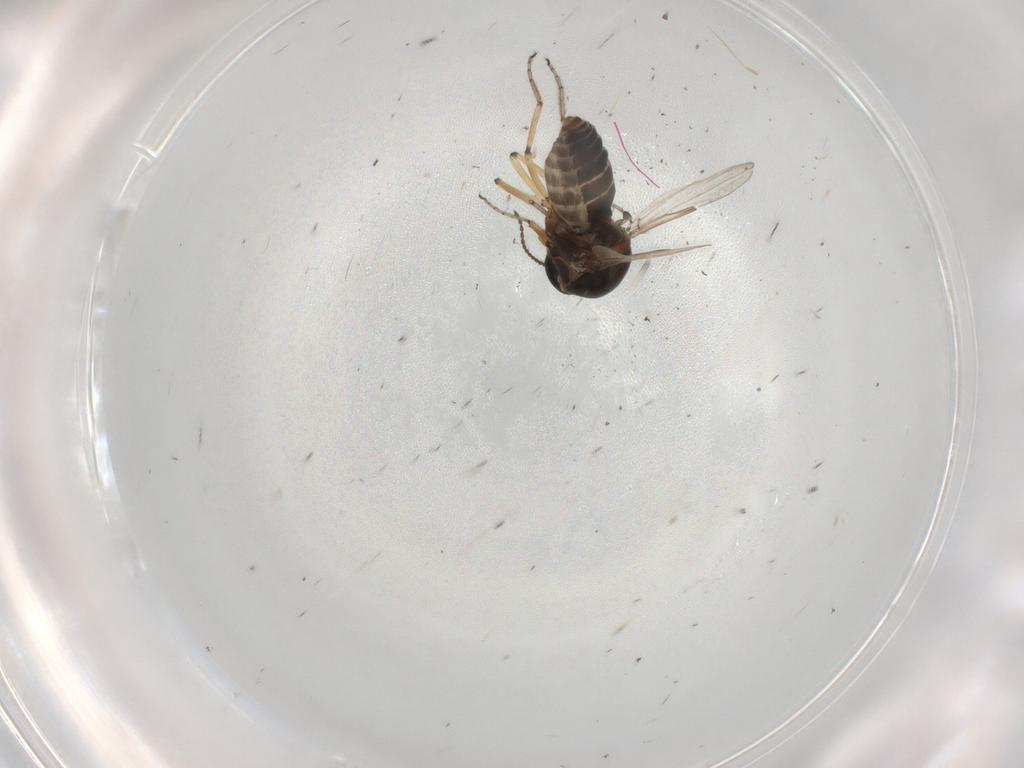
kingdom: Animalia
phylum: Arthropoda
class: Insecta
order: Diptera
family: Ceratopogonidae
